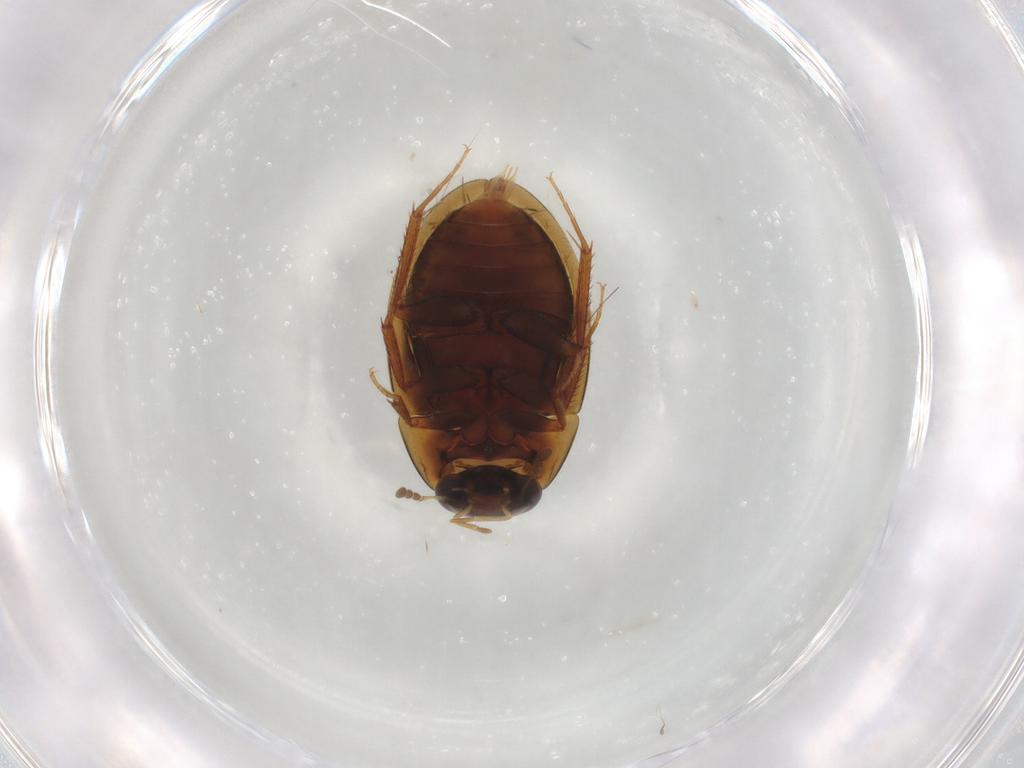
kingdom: Animalia
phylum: Arthropoda
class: Insecta
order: Coleoptera
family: Hydrophilidae
